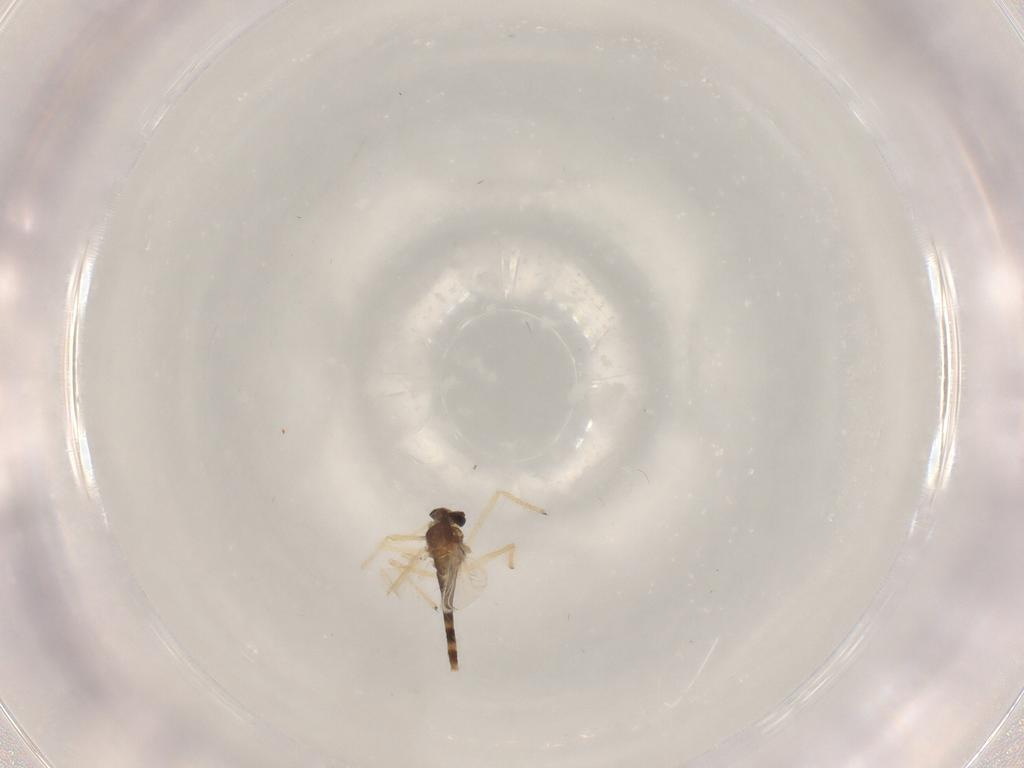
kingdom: Animalia
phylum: Arthropoda
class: Insecta
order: Diptera
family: Chironomidae
